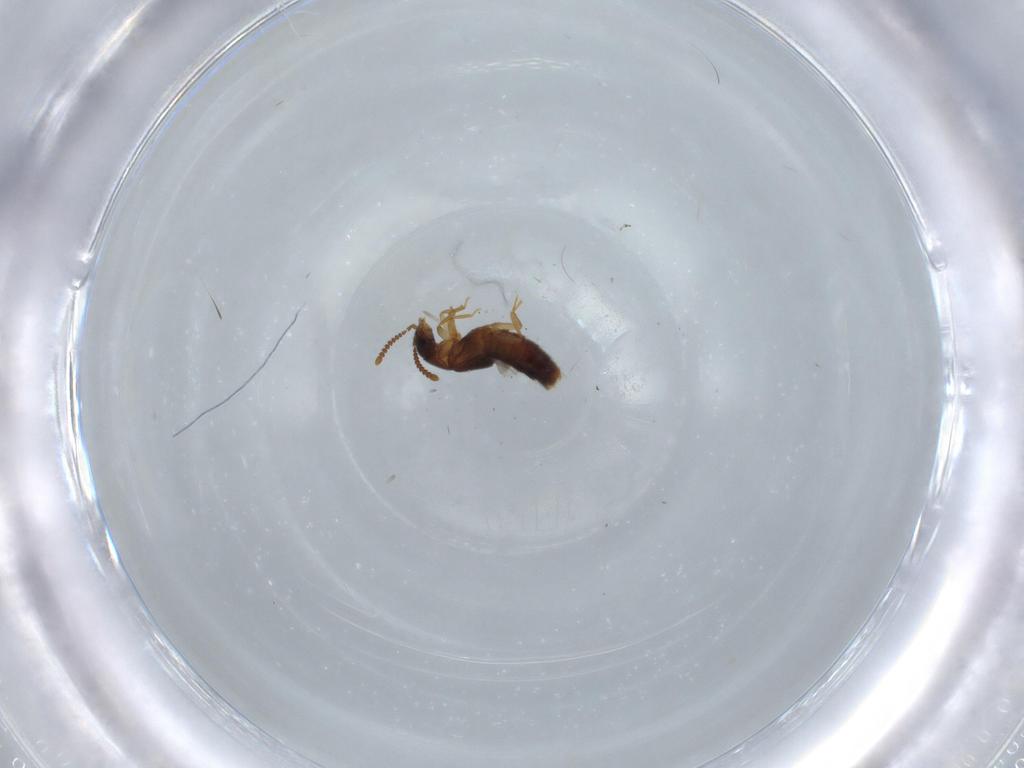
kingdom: Animalia
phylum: Arthropoda
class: Insecta
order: Coleoptera
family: Staphylinidae
